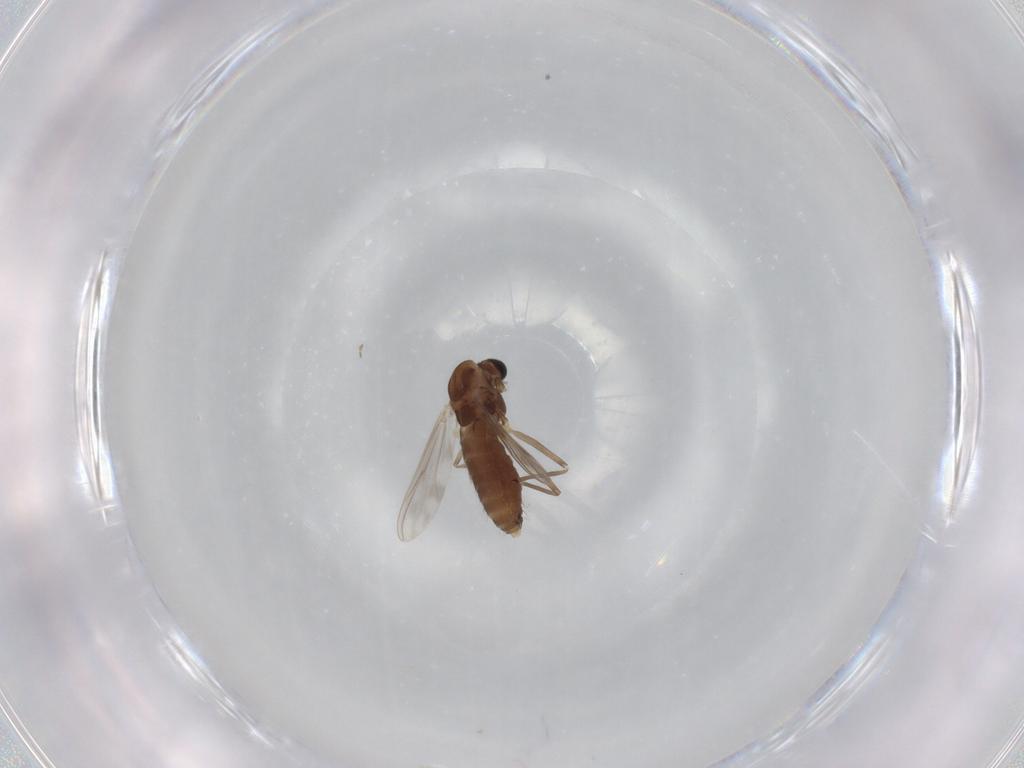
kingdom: Animalia
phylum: Arthropoda
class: Insecta
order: Diptera
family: Chironomidae
